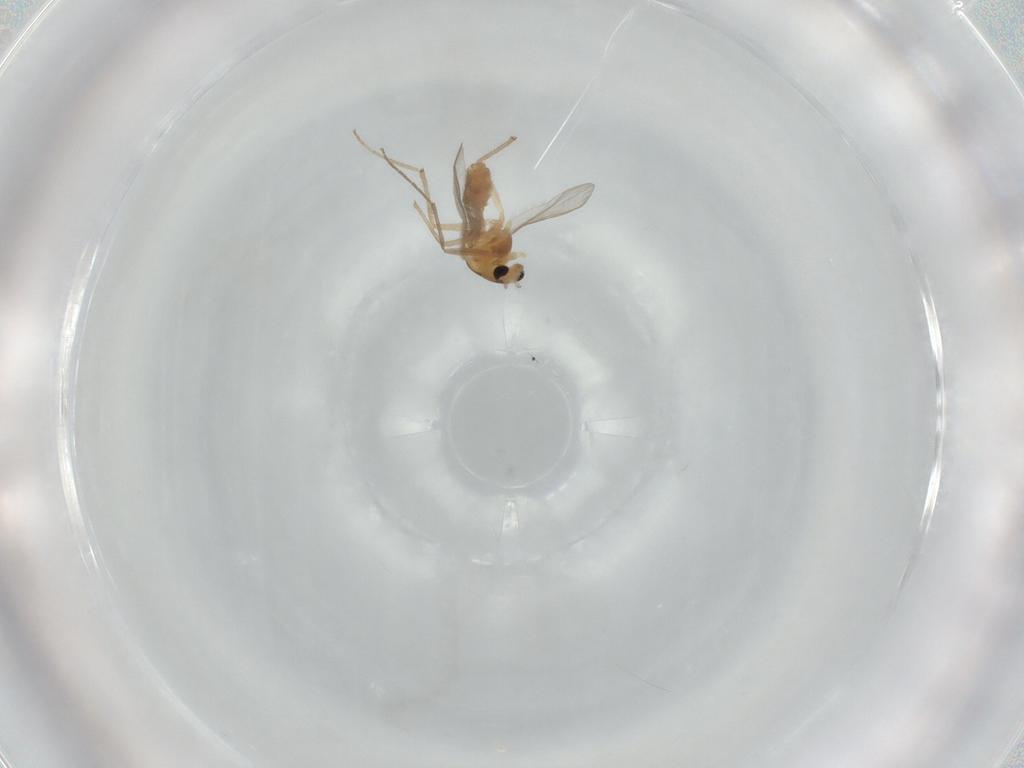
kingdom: Animalia
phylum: Arthropoda
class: Insecta
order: Diptera
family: Chironomidae
